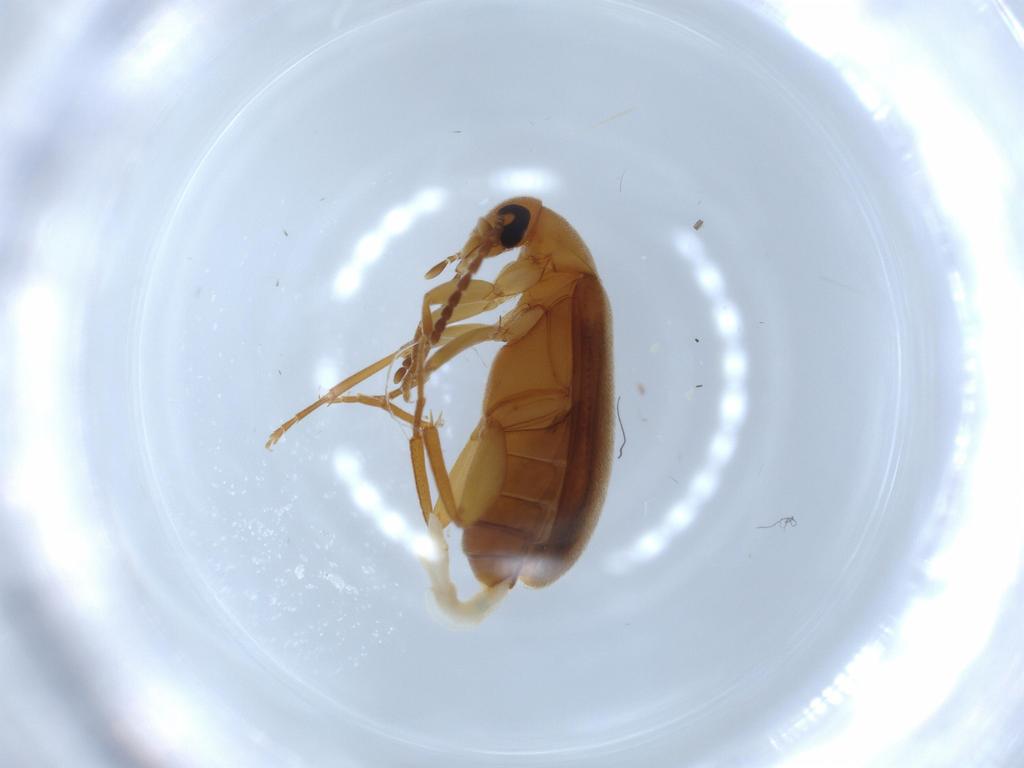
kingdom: Animalia
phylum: Arthropoda
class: Insecta
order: Coleoptera
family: Scraptiidae
